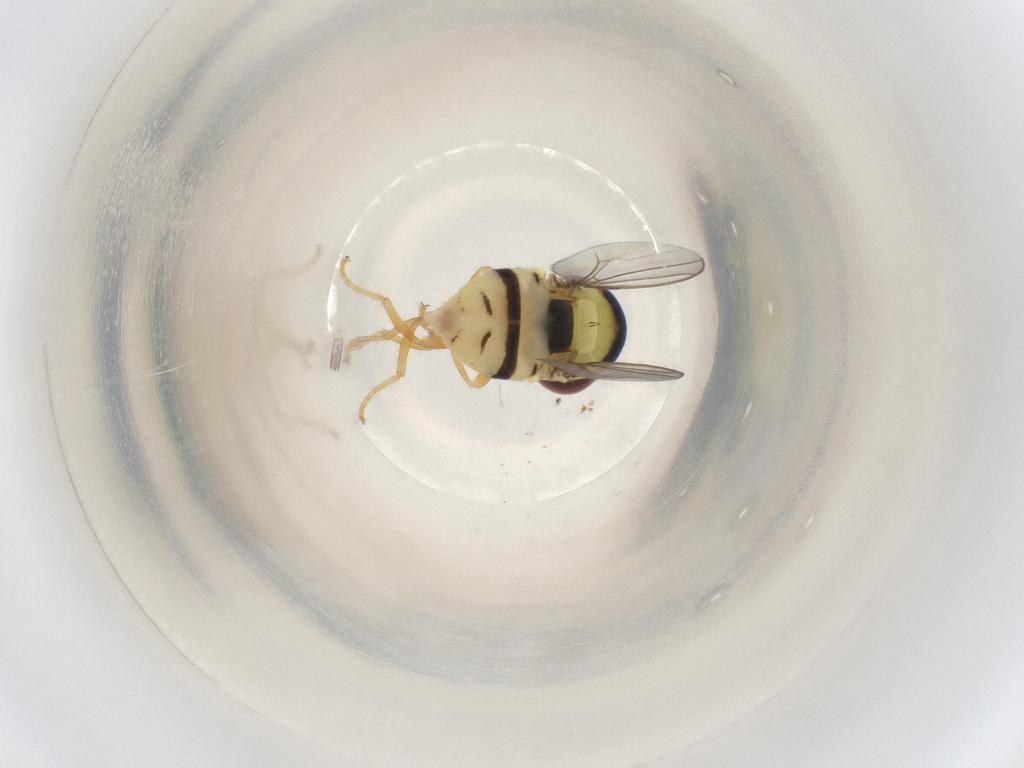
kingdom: Animalia
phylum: Arthropoda
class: Insecta
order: Diptera
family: Chloropidae
